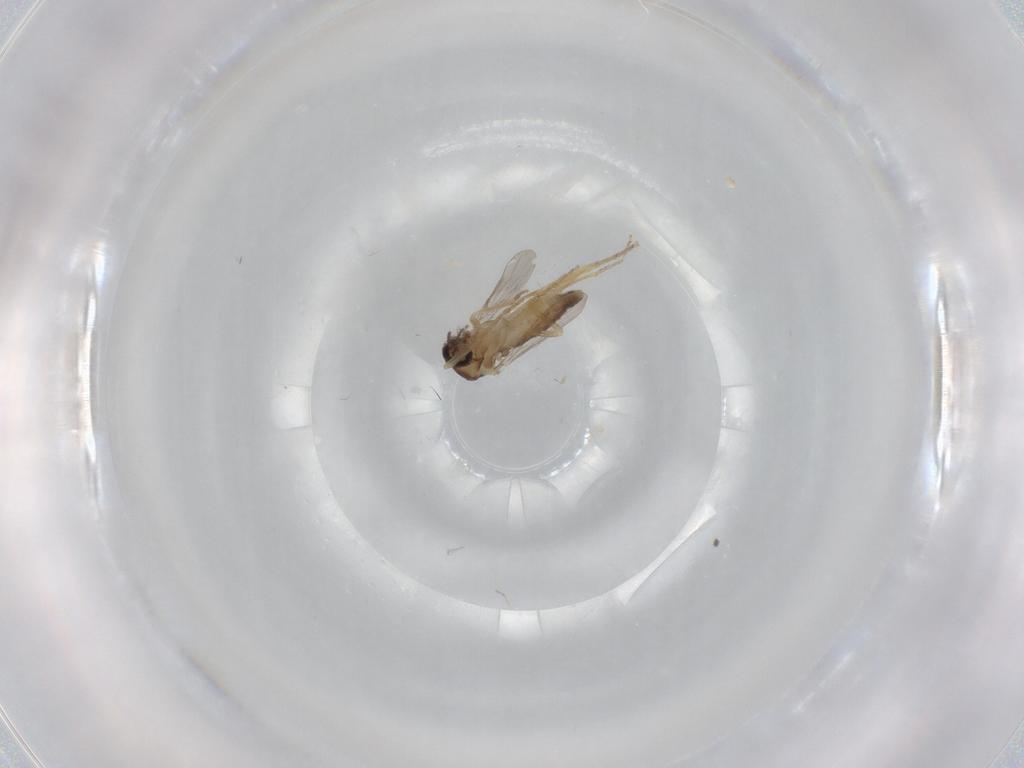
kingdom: Animalia
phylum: Arthropoda
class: Insecta
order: Diptera
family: Ceratopogonidae
